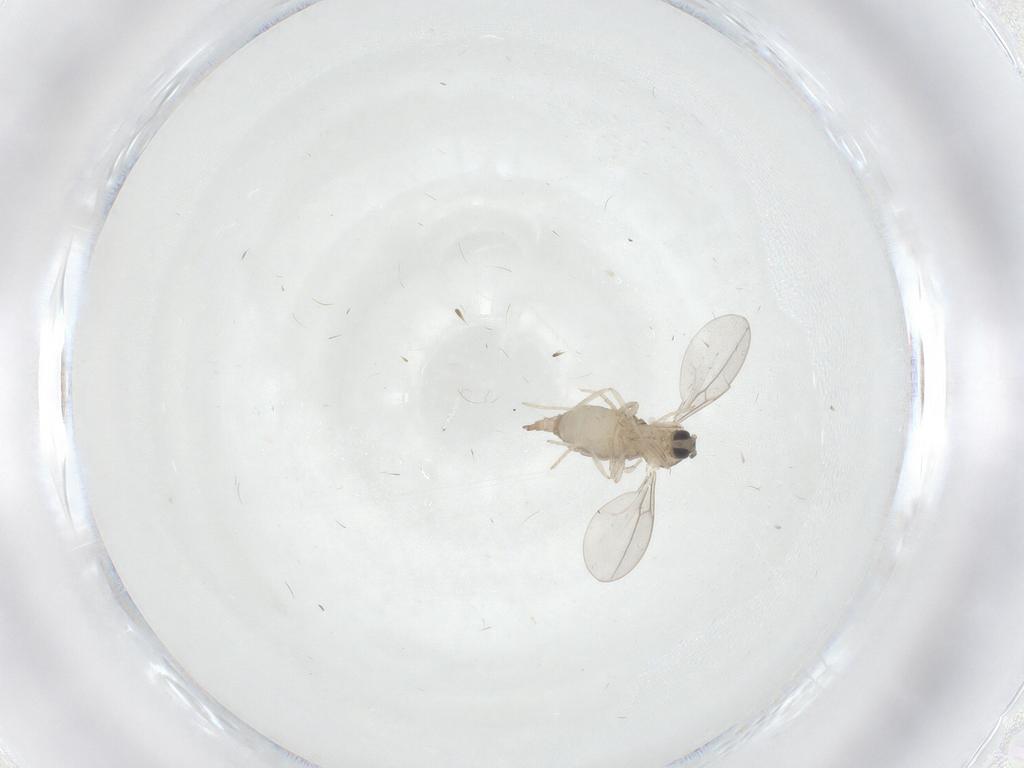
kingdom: Animalia
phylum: Arthropoda
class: Insecta
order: Diptera
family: Cecidomyiidae
